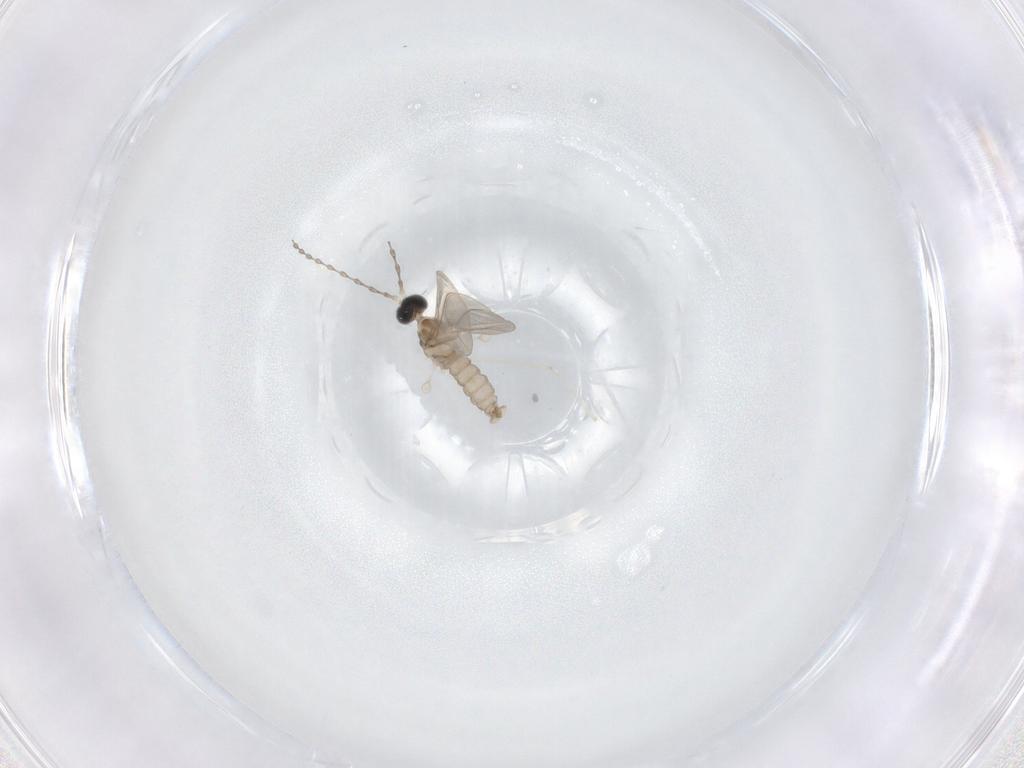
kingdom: Animalia
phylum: Arthropoda
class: Insecta
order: Diptera
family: Cecidomyiidae
